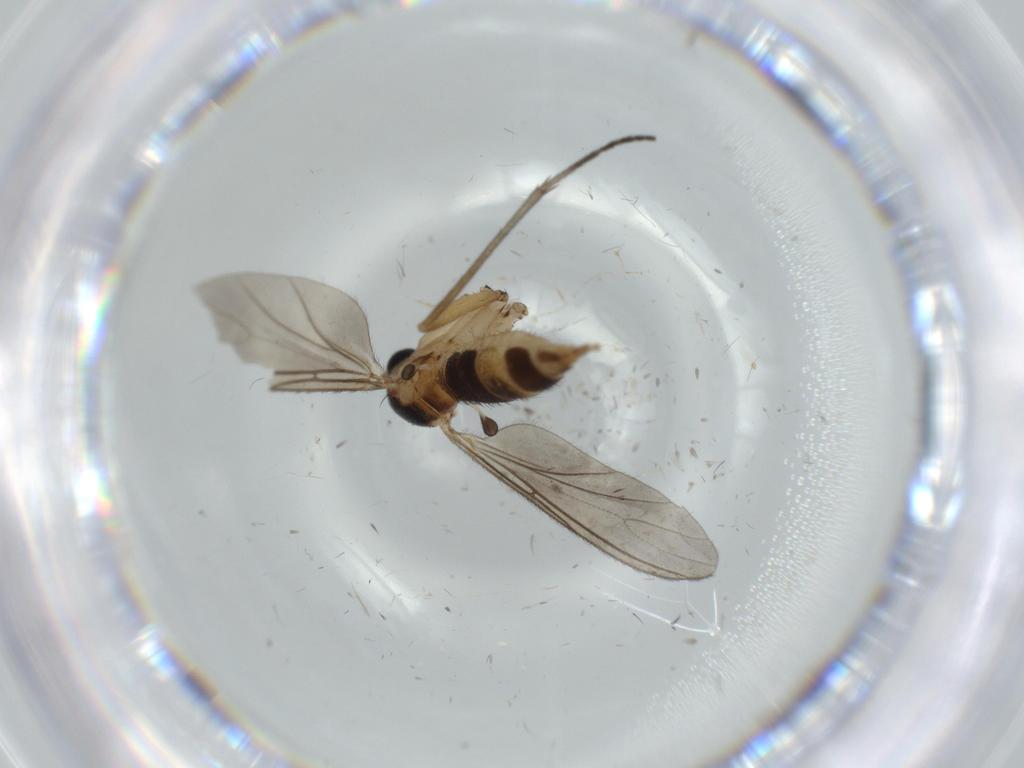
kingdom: Animalia
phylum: Arthropoda
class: Insecta
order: Diptera
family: Sciaridae
